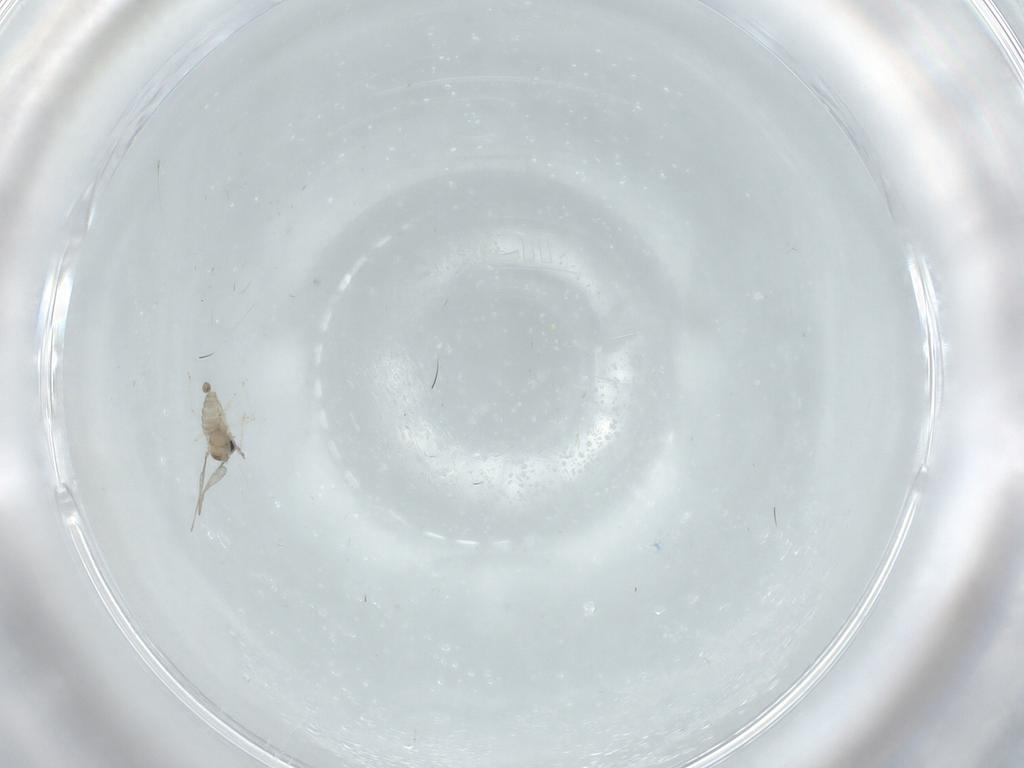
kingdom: Animalia
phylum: Arthropoda
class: Insecta
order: Diptera
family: Cecidomyiidae
